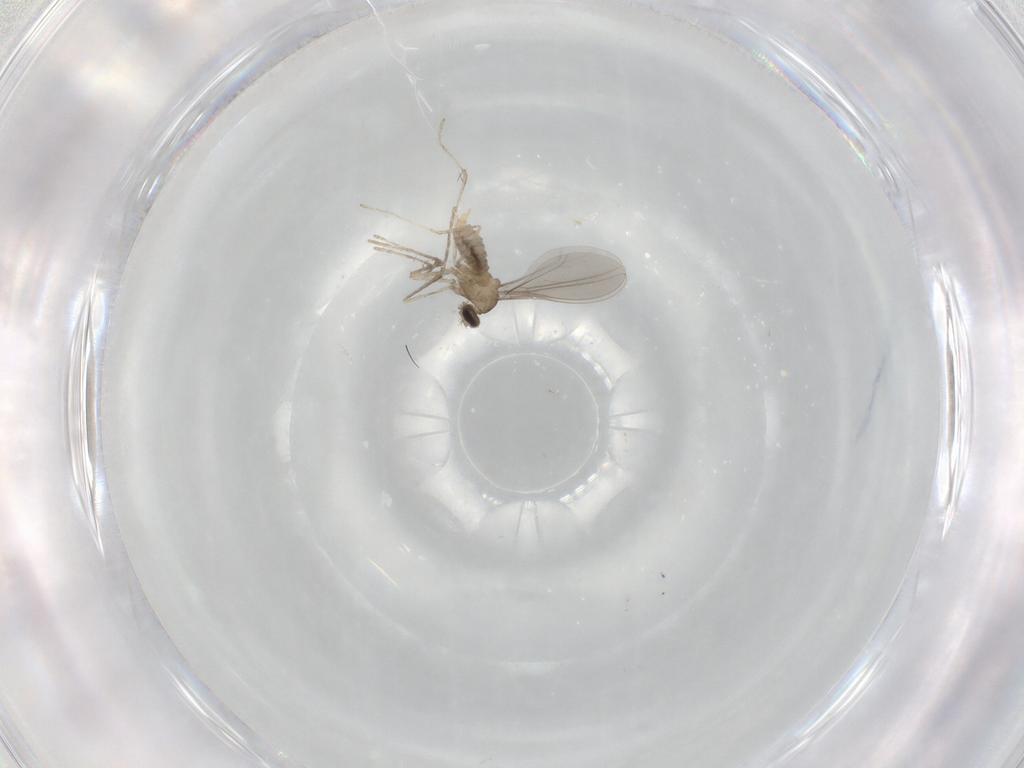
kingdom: Animalia
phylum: Arthropoda
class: Insecta
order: Diptera
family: Cecidomyiidae
